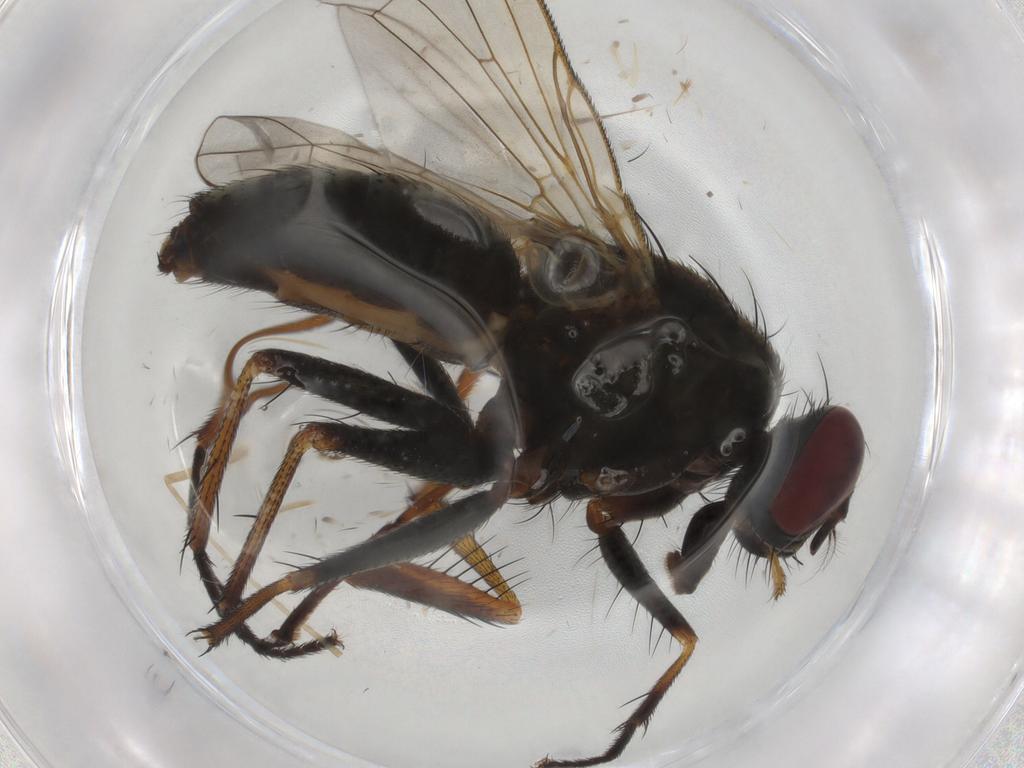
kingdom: Animalia
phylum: Arthropoda
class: Insecta
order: Diptera
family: Muscidae
